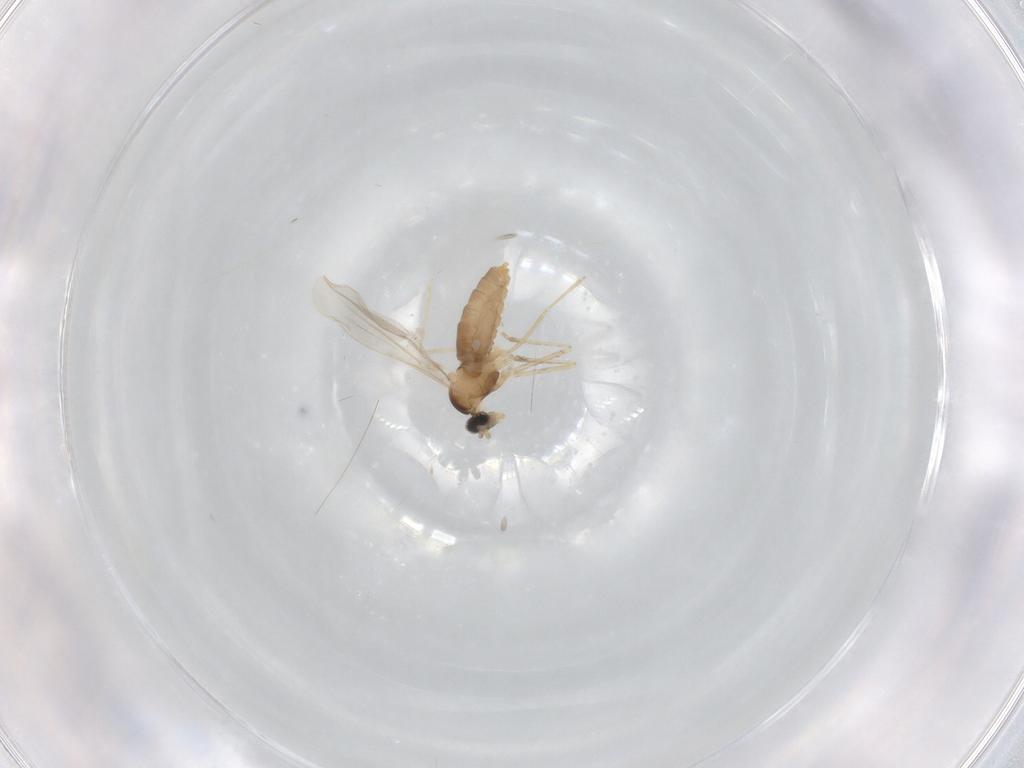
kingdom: Animalia
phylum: Arthropoda
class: Insecta
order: Diptera
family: Cecidomyiidae
